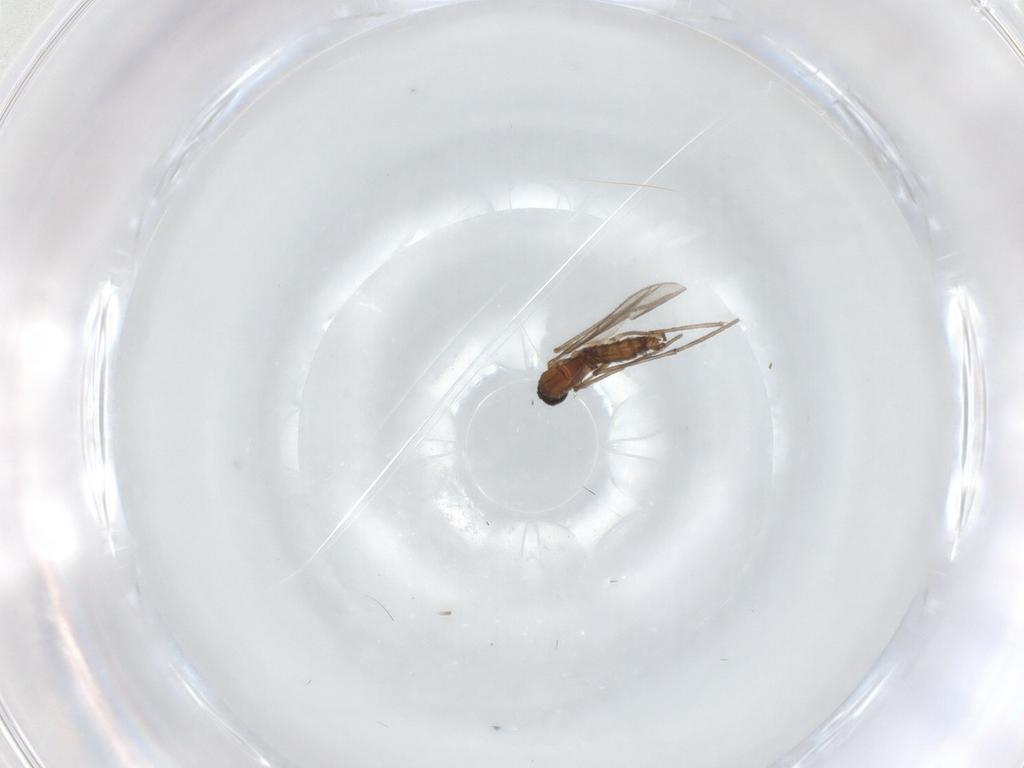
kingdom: Animalia
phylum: Arthropoda
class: Insecta
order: Diptera
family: Sciaridae
